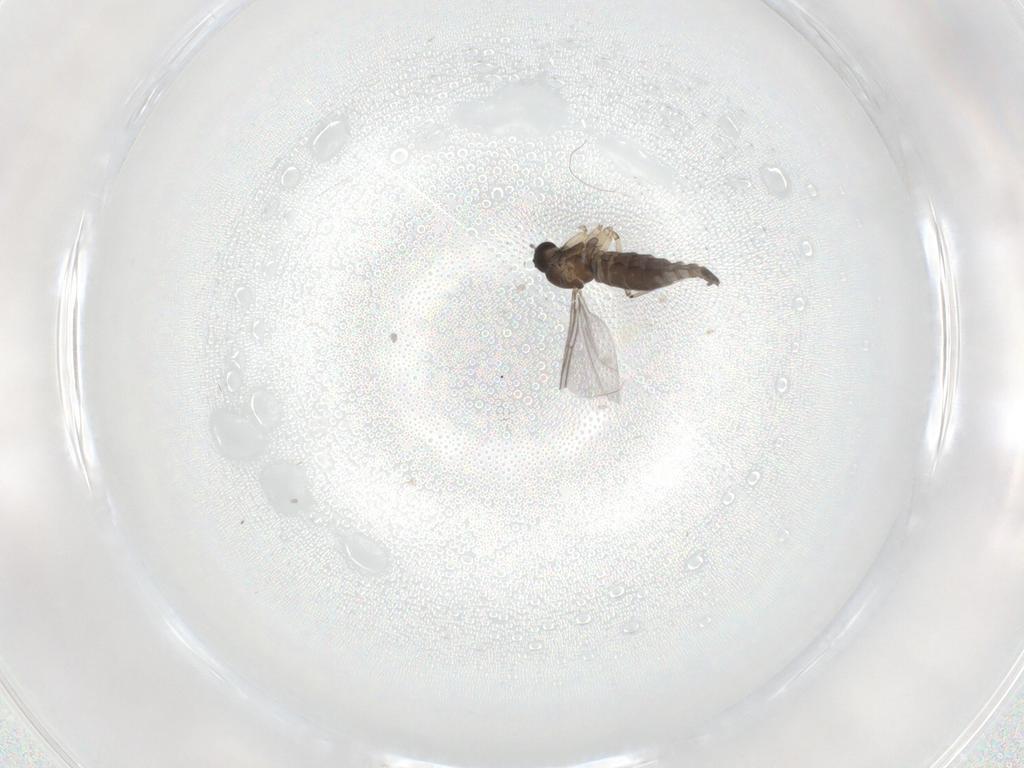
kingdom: Animalia
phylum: Arthropoda
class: Insecta
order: Diptera
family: Sciaridae
